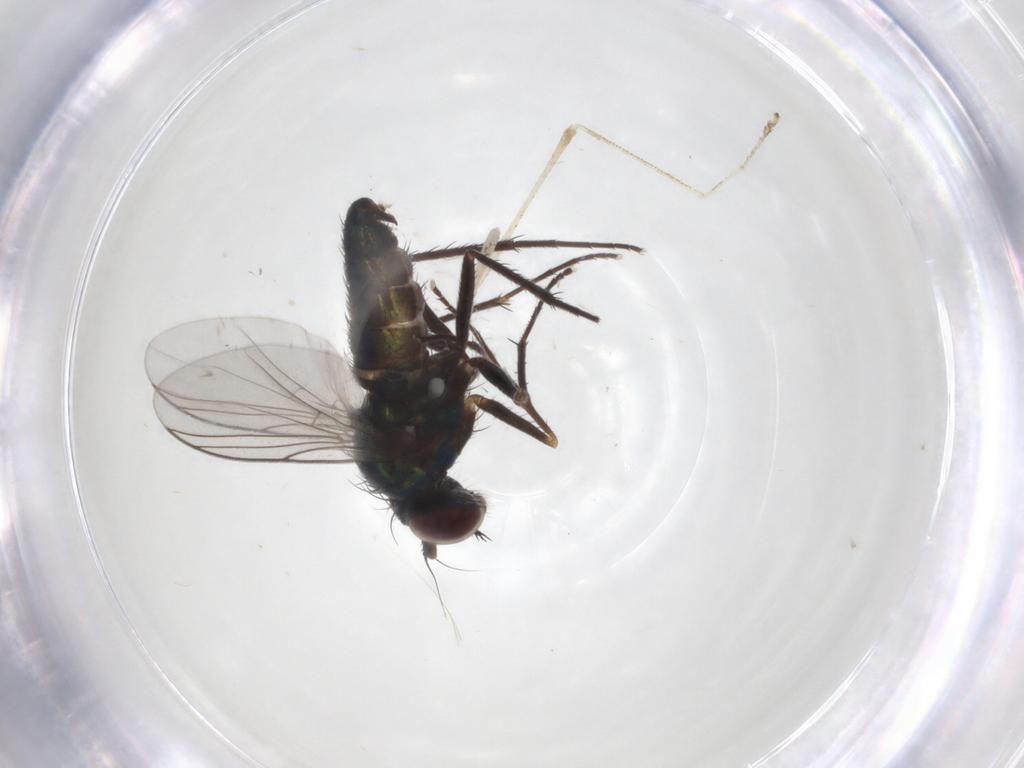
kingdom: Animalia
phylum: Arthropoda
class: Insecta
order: Diptera
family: Dolichopodidae
